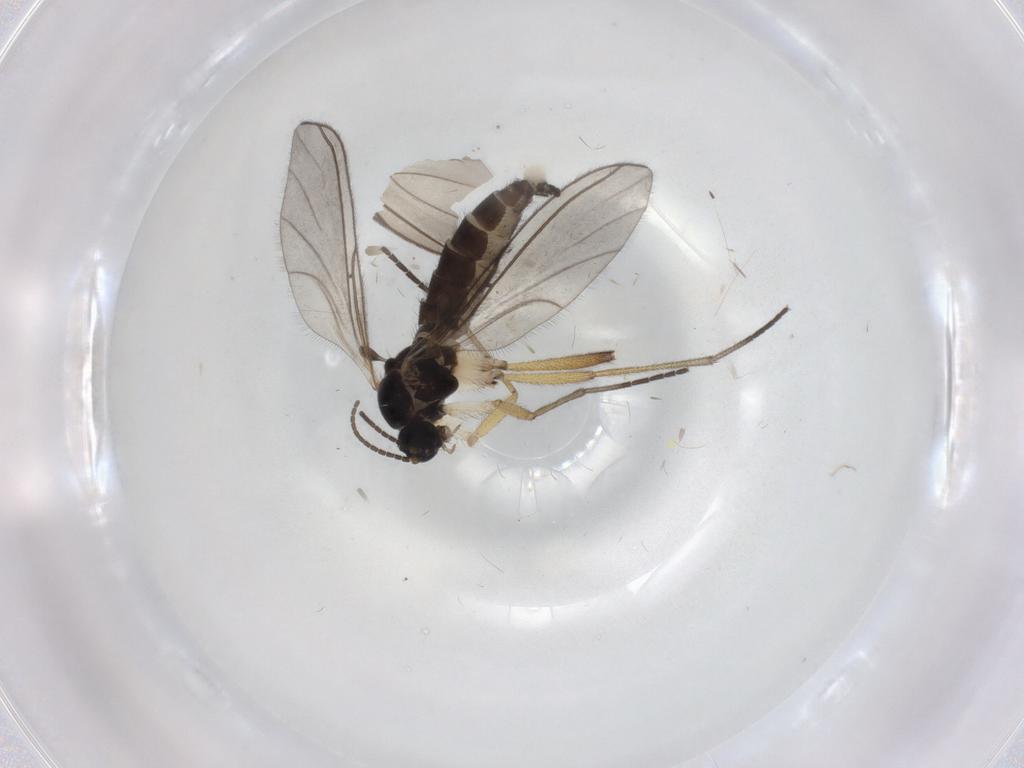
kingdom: Animalia
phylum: Arthropoda
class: Insecta
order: Diptera
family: Sciaridae
